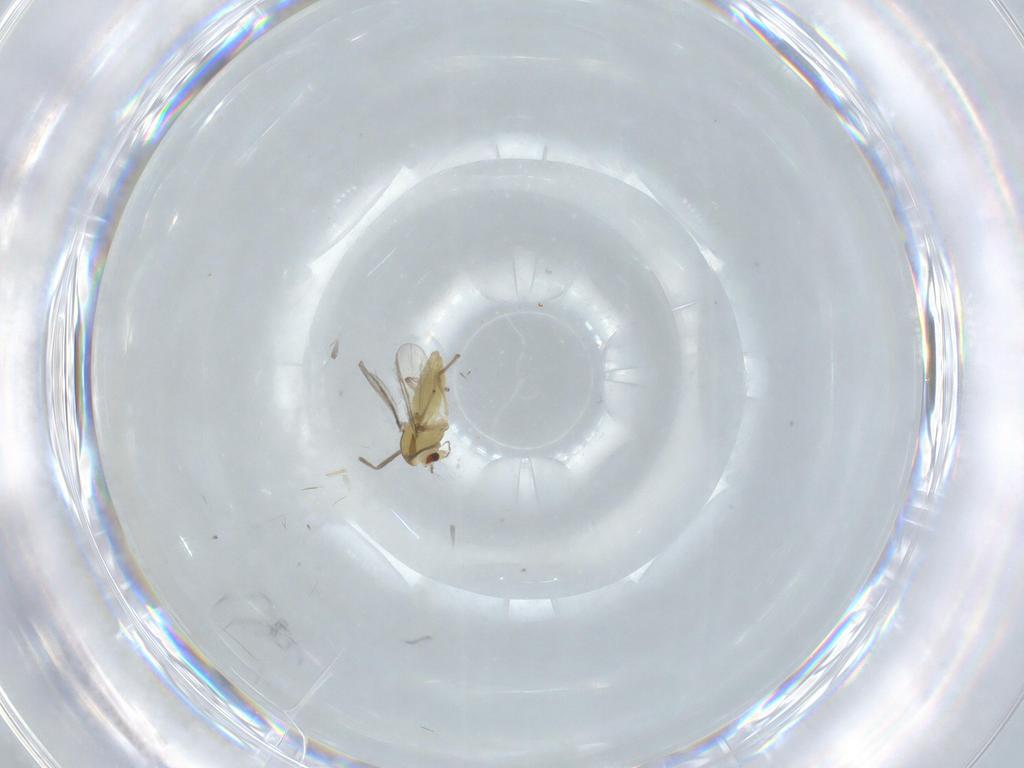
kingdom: Animalia
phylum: Arthropoda
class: Insecta
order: Diptera
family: Chironomidae
